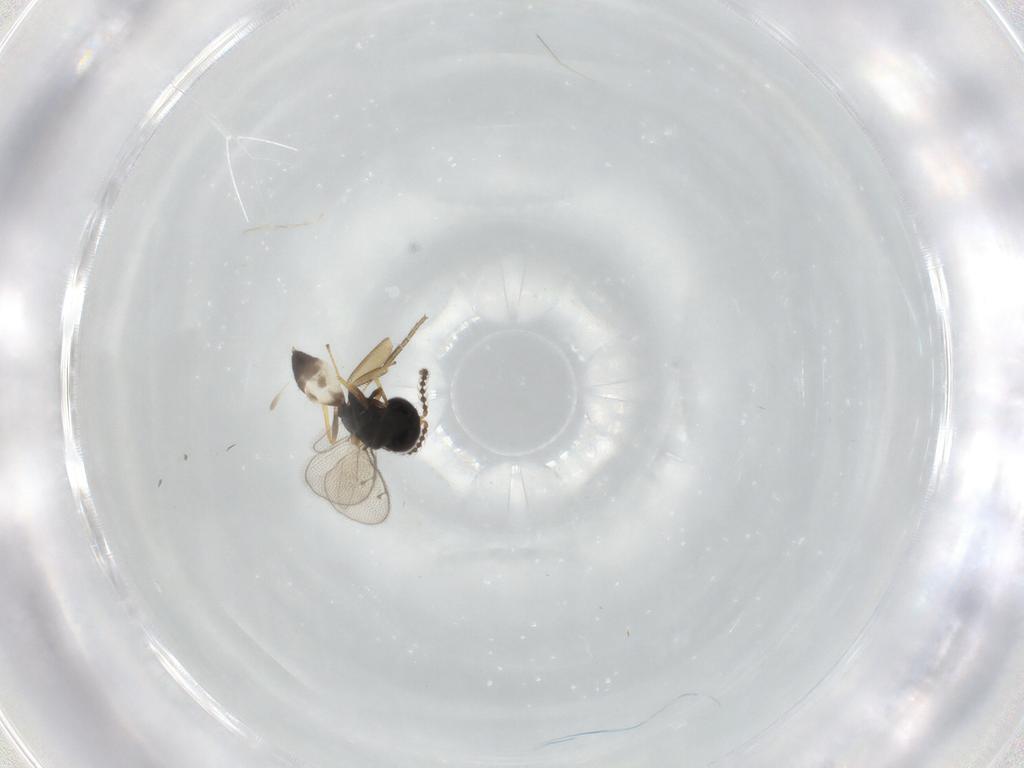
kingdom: Animalia
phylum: Arthropoda
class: Insecta
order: Hymenoptera
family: Pteromalidae
